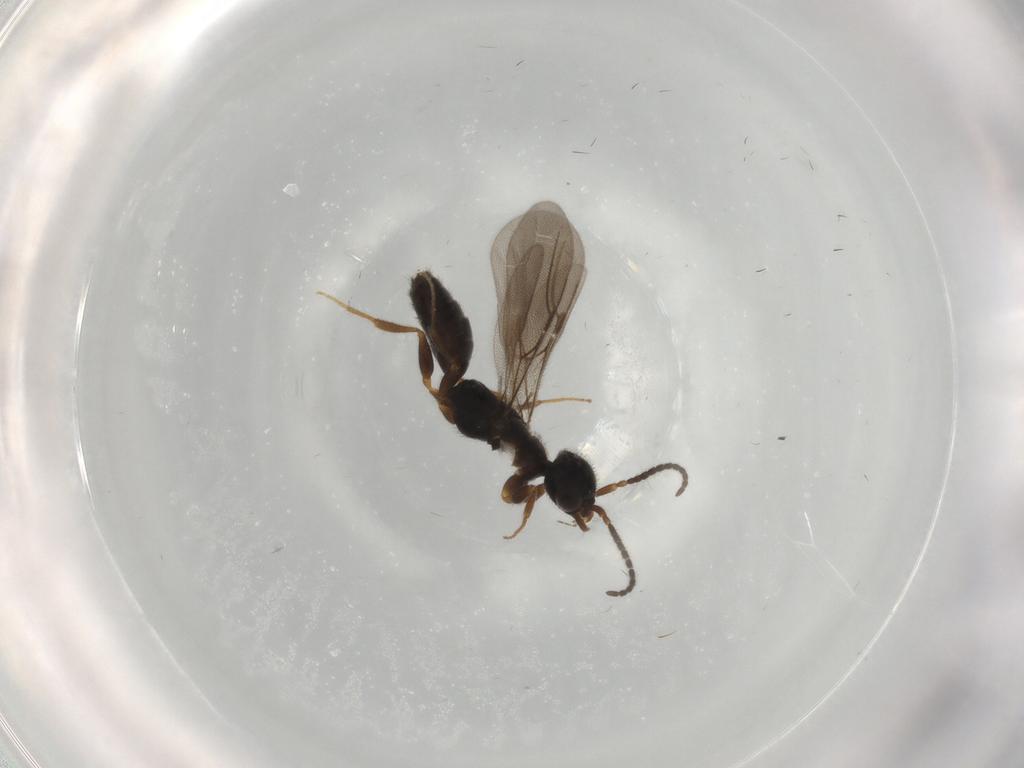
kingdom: Animalia
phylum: Arthropoda
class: Insecta
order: Hymenoptera
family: Bethylidae
